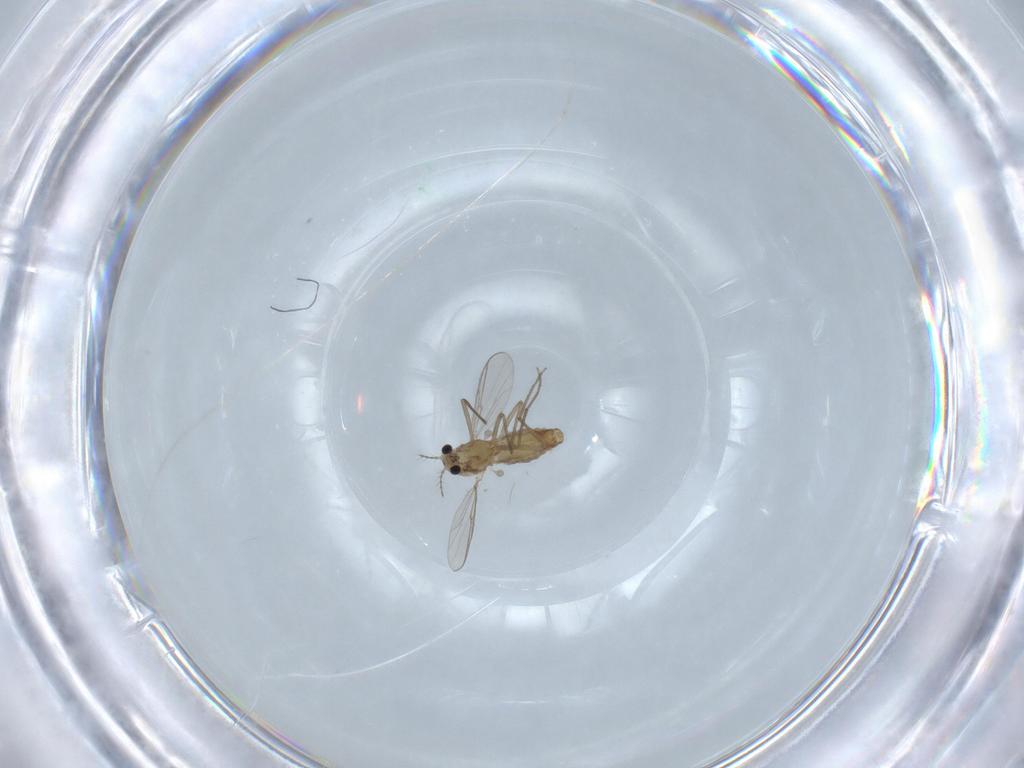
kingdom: Animalia
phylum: Arthropoda
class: Insecta
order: Diptera
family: Chironomidae
